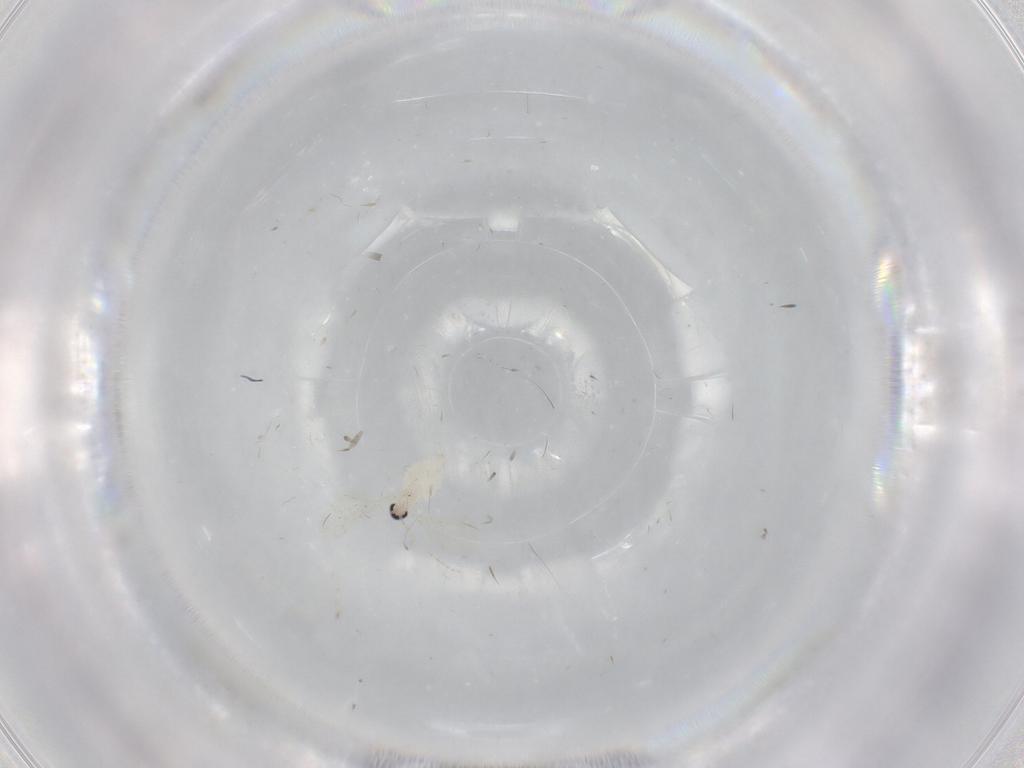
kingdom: Animalia
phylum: Arthropoda
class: Insecta
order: Diptera
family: Cecidomyiidae
